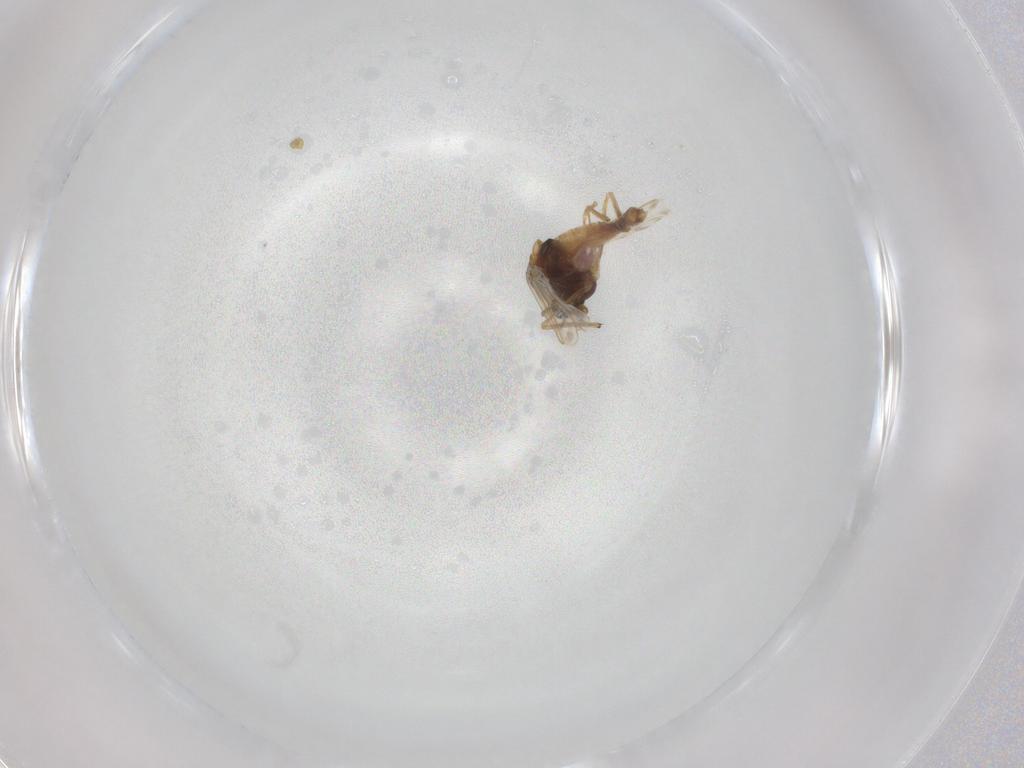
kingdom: Animalia
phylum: Arthropoda
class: Insecta
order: Diptera
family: Chironomidae
